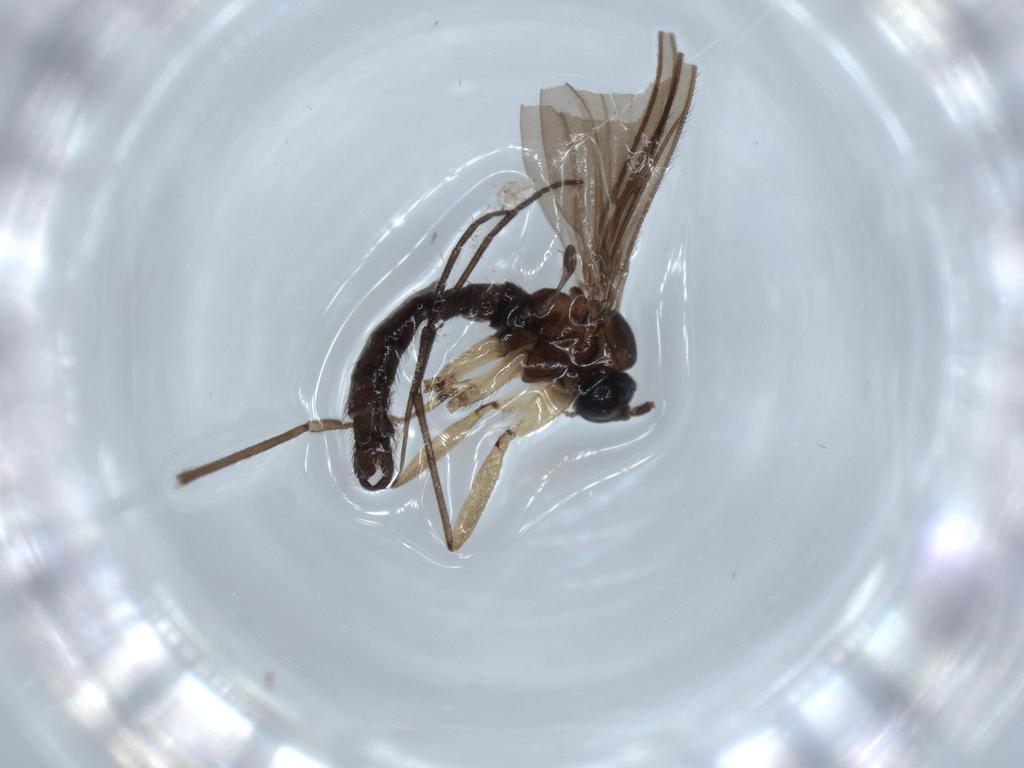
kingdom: Animalia
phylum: Arthropoda
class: Insecta
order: Diptera
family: Sciaridae
